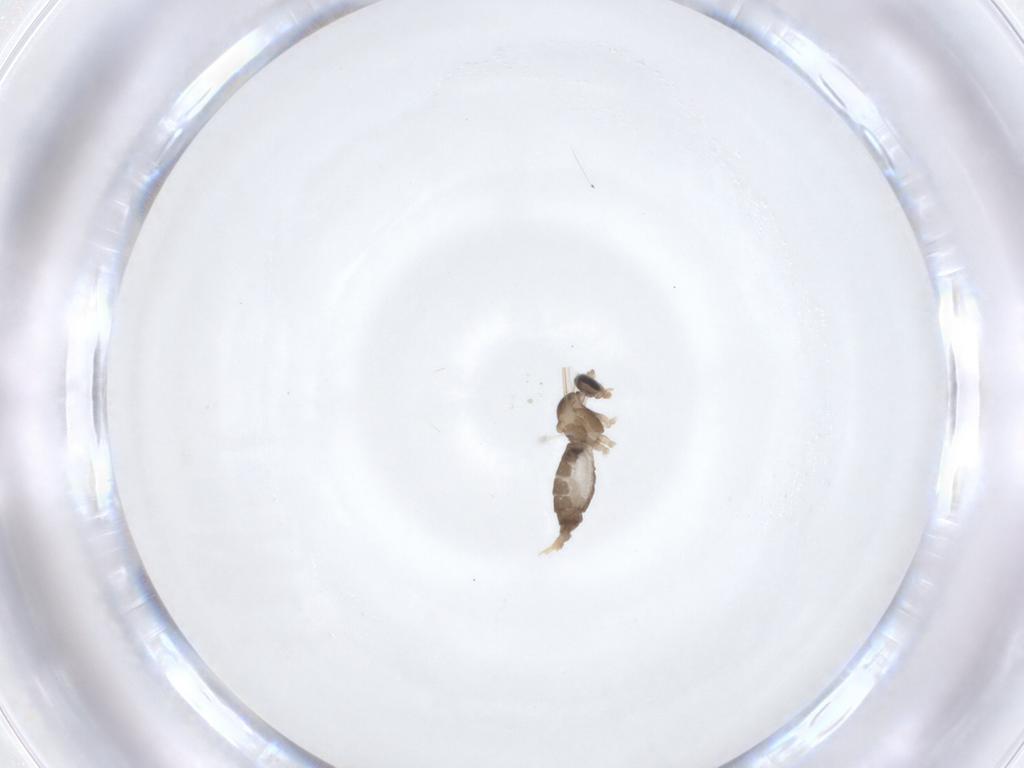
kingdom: Animalia
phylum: Arthropoda
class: Insecta
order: Diptera
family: Cecidomyiidae
